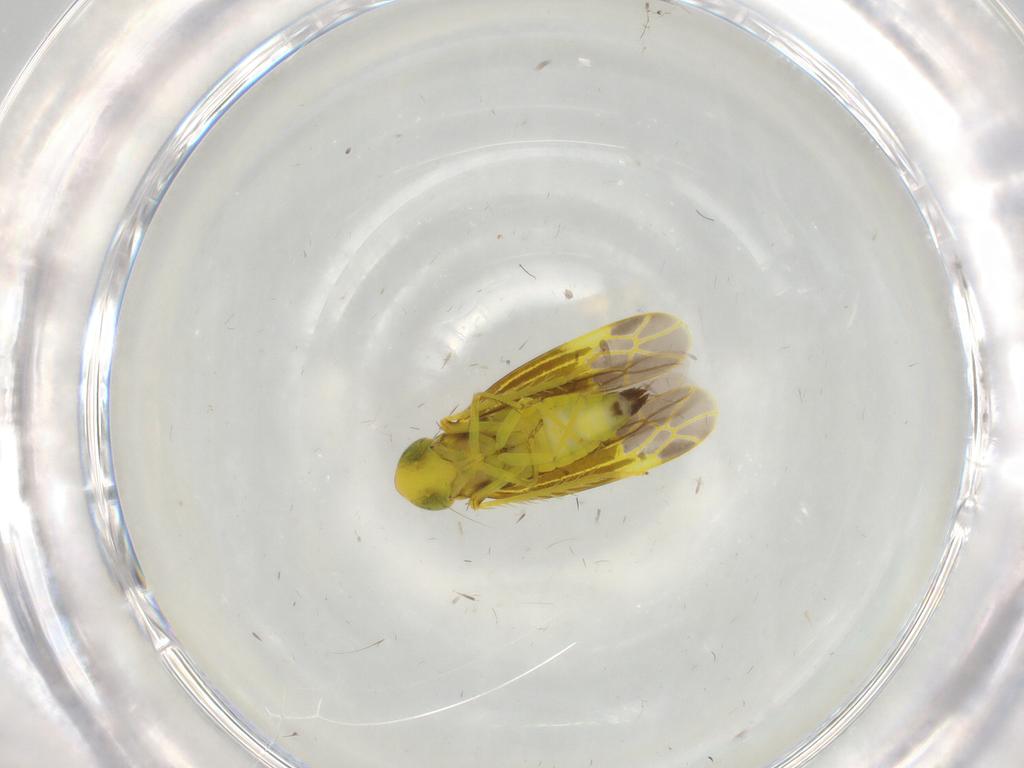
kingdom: Animalia
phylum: Arthropoda
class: Insecta
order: Hemiptera
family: Cicadellidae
